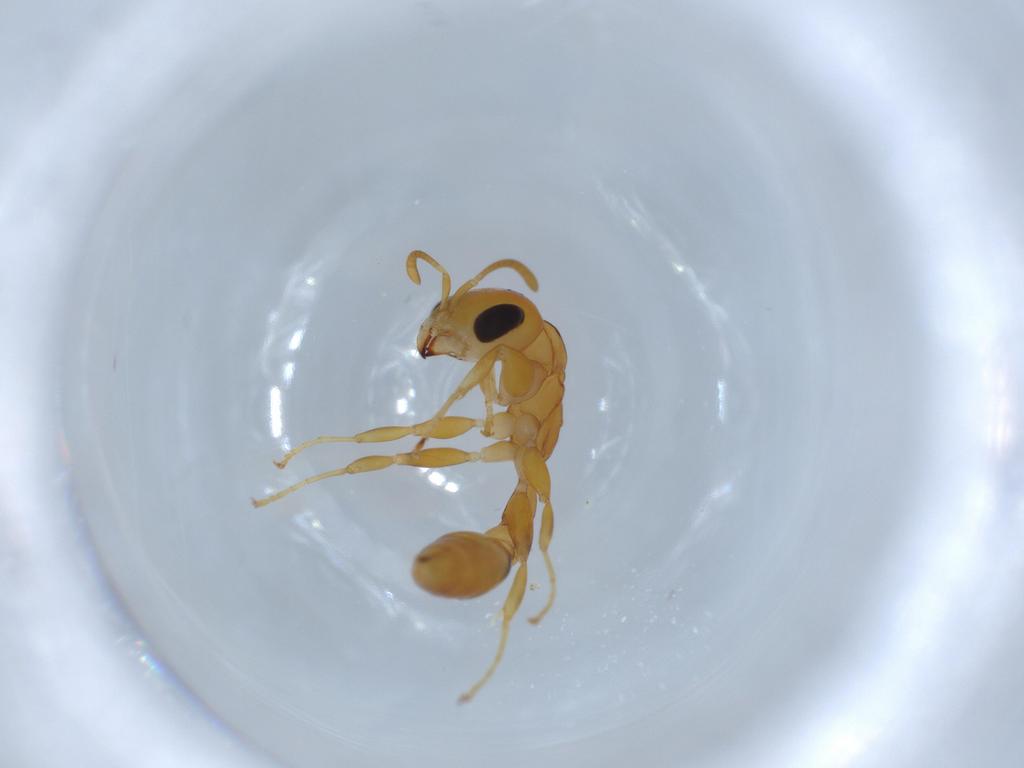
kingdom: Animalia
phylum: Arthropoda
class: Insecta
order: Hymenoptera
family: Formicidae
